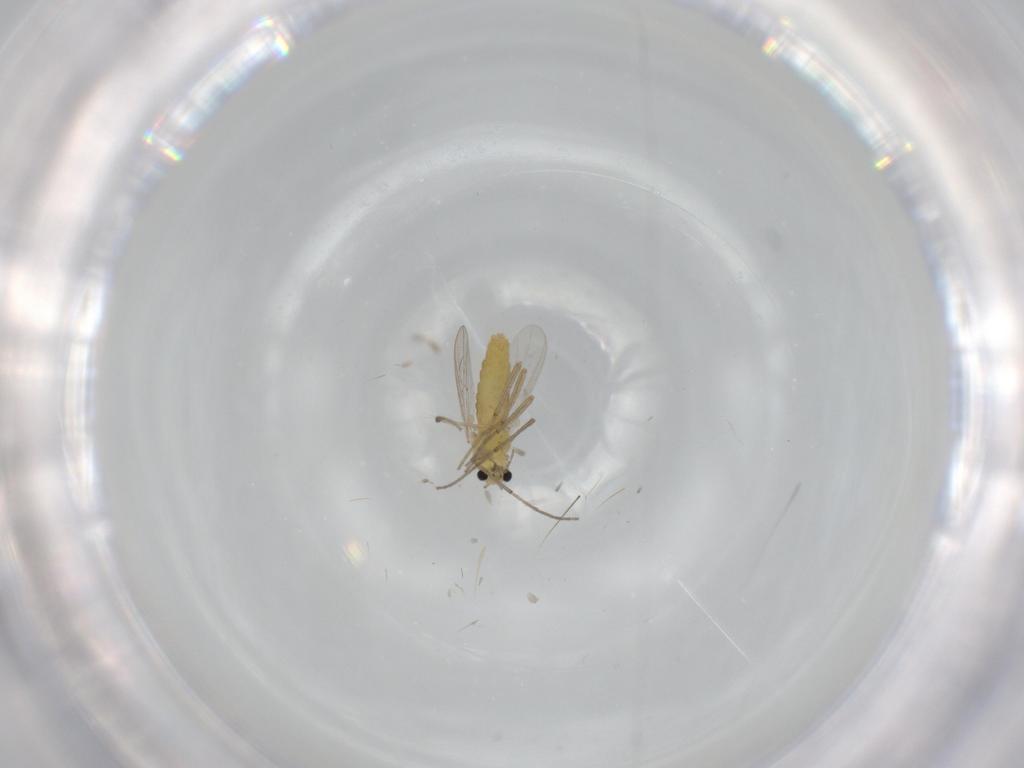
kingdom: Animalia
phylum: Arthropoda
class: Insecta
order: Diptera
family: Chironomidae
